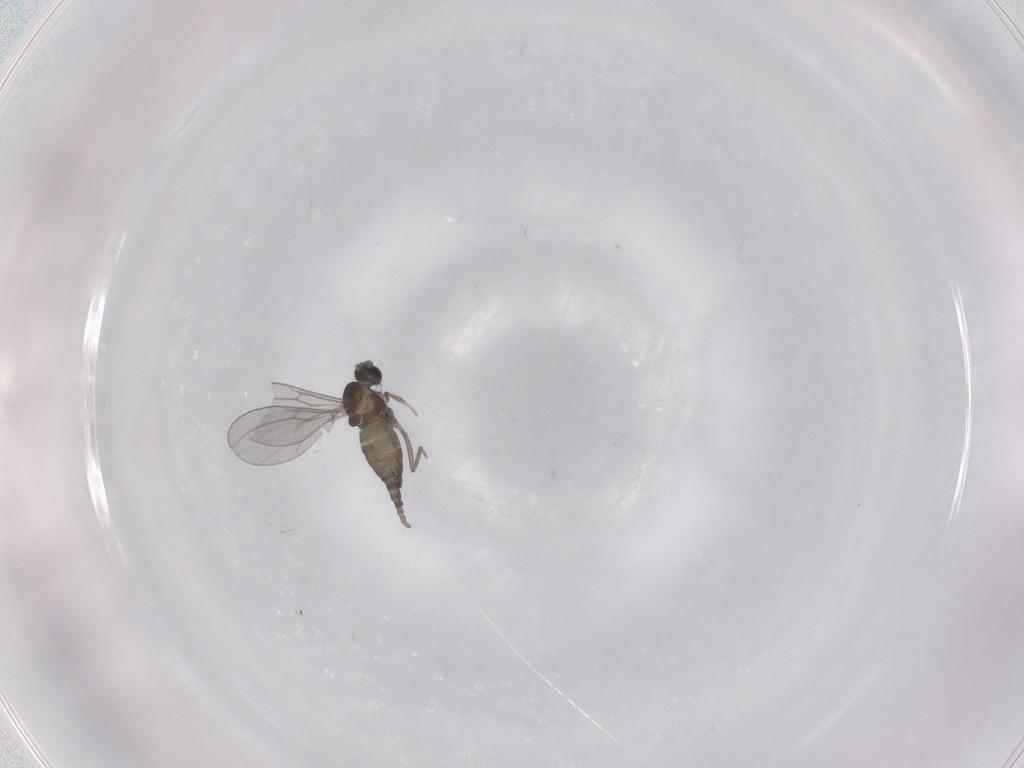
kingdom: Animalia
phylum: Arthropoda
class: Insecta
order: Diptera
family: Cecidomyiidae
